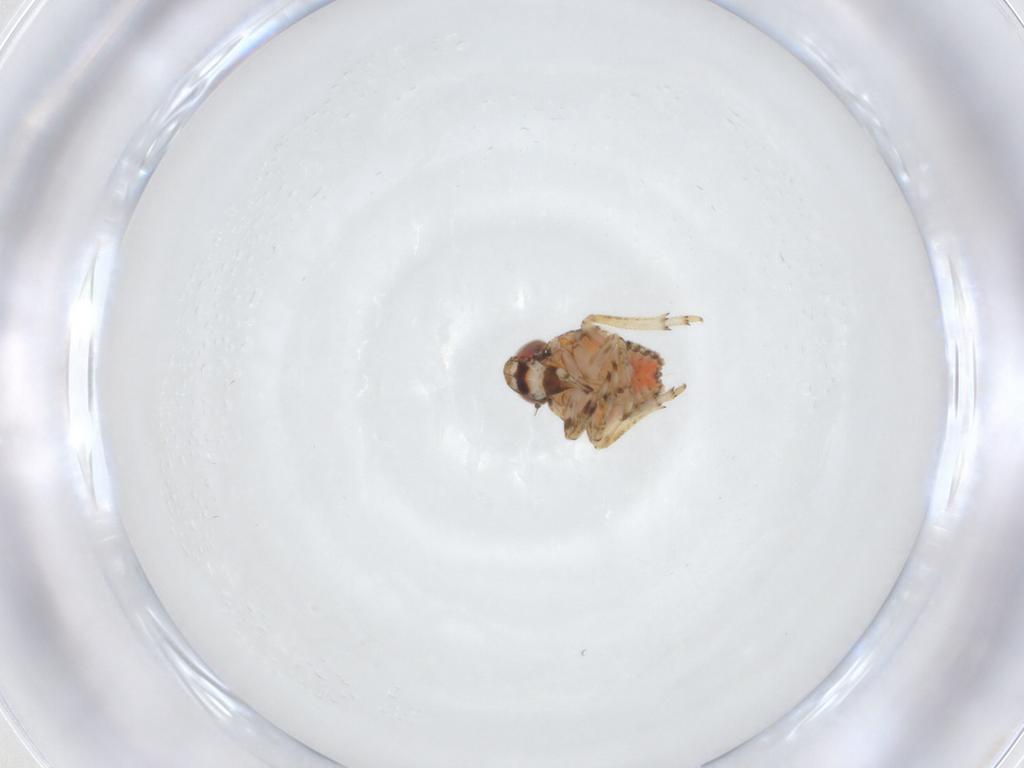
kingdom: Animalia
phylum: Arthropoda
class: Insecta
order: Hemiptera
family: Cicadellidae
